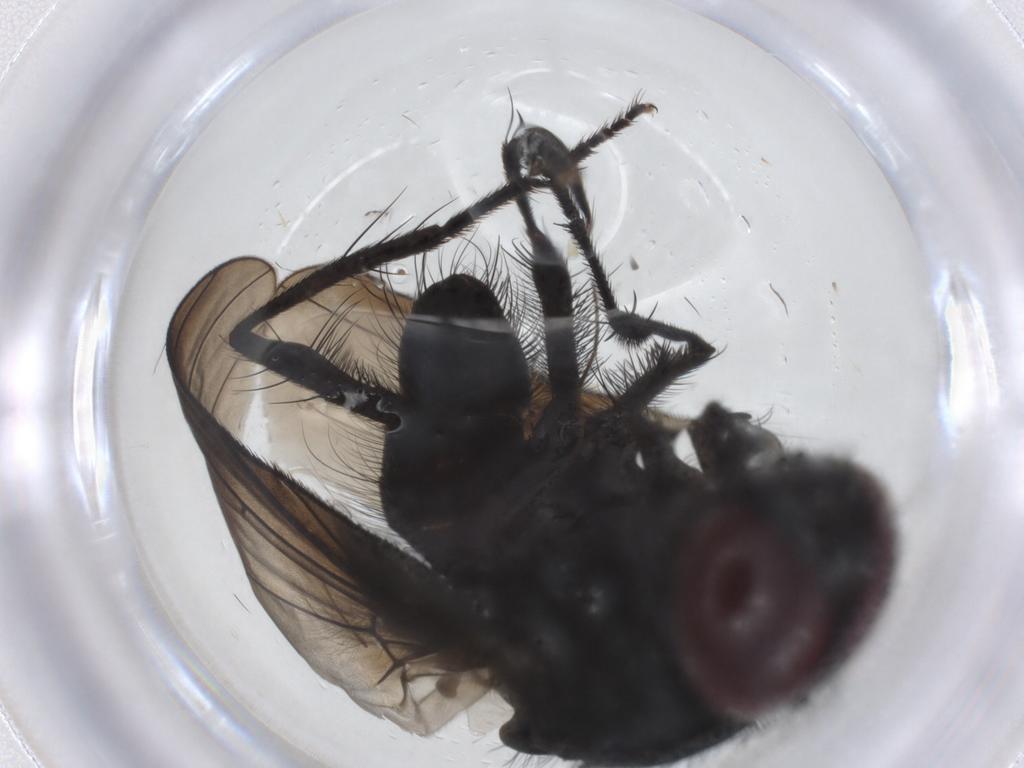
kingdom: Animalia
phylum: Arthropoda
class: Insecta
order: Diptera
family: Fannia
